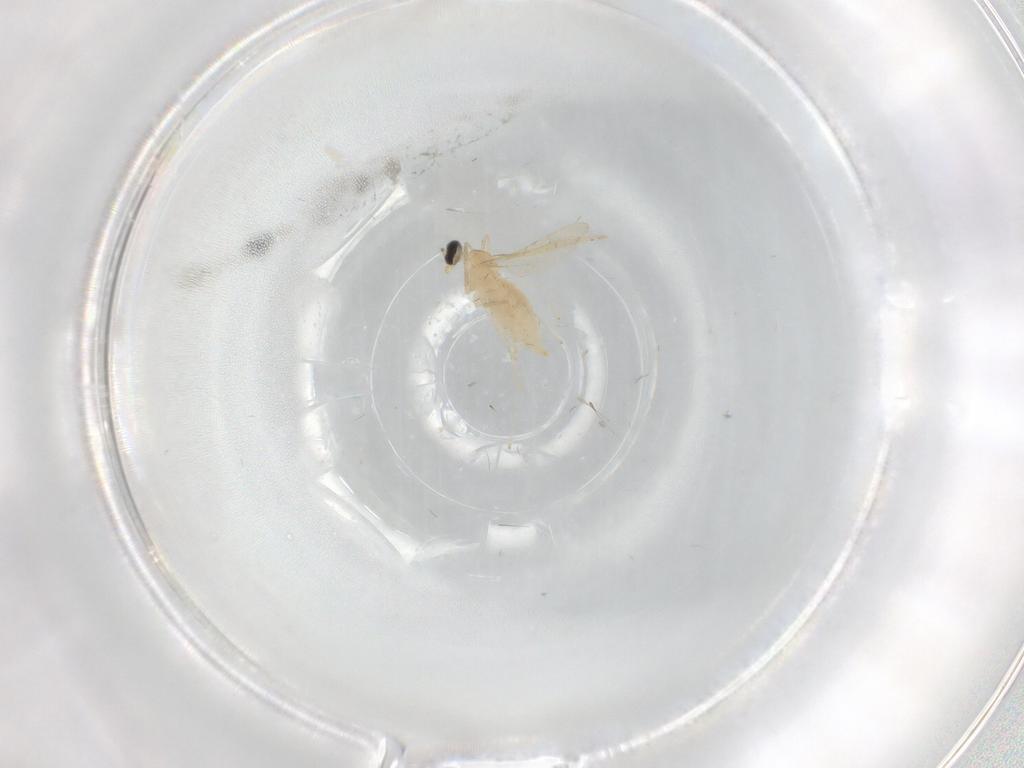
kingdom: Animalia
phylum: Arthropoda
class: Insecta
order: Diptera
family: Cecidomyiidae
